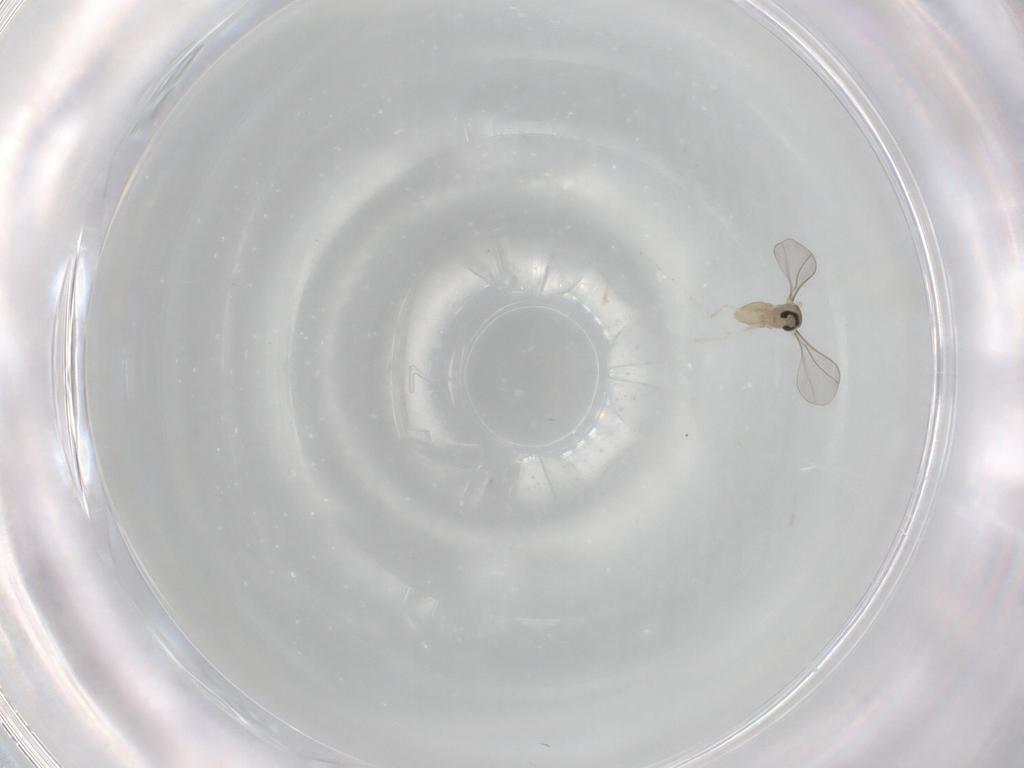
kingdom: Animalia
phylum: Arthropoda
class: Insecta
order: Diptera
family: Cecidomyiidae
